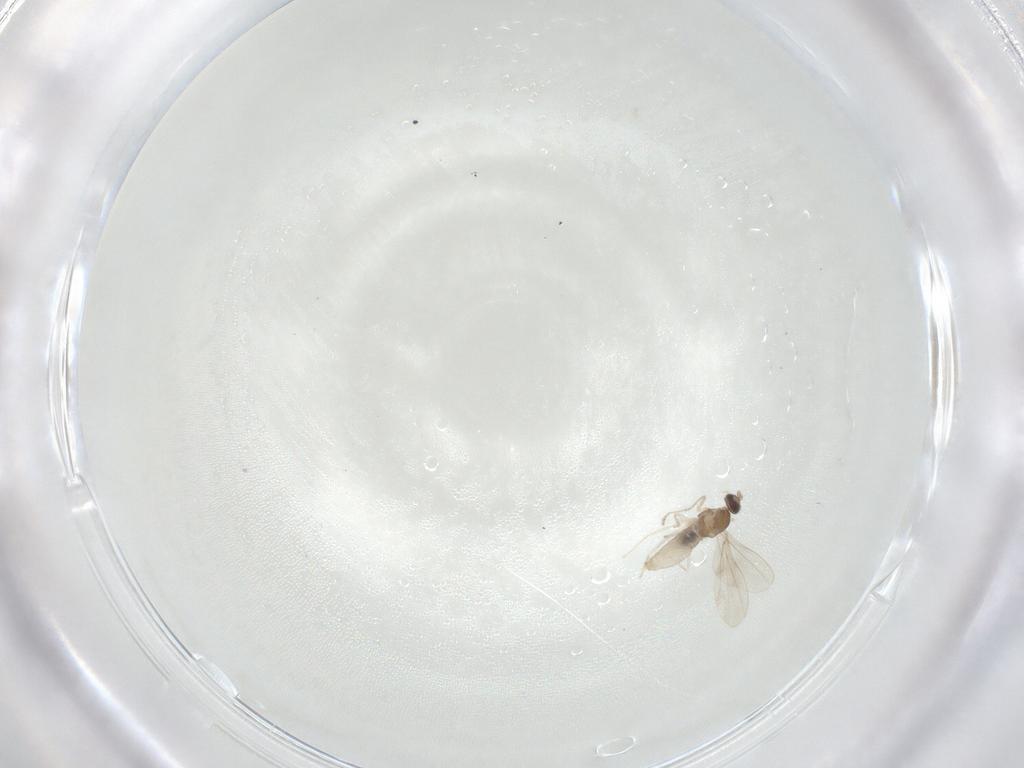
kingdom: Animalia
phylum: Arthropoda
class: Insecta
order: Diptera
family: Cecidomyiidae
